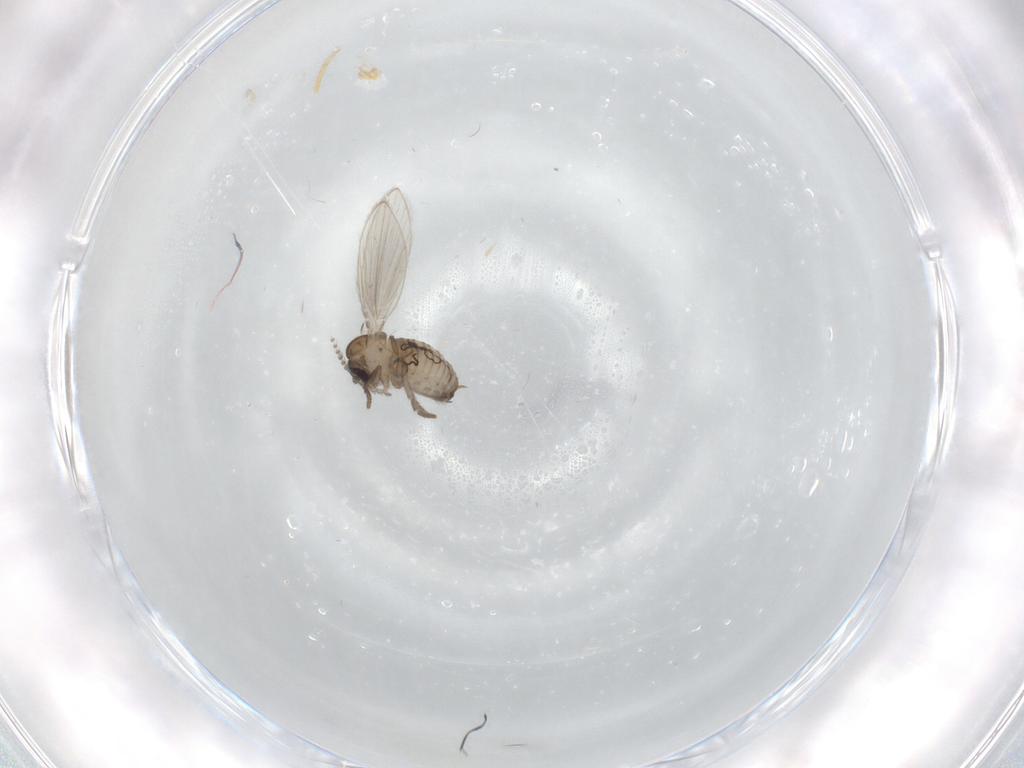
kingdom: Animalia
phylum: Arthropoda
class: Insecta
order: Diptera
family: Psychodidae
